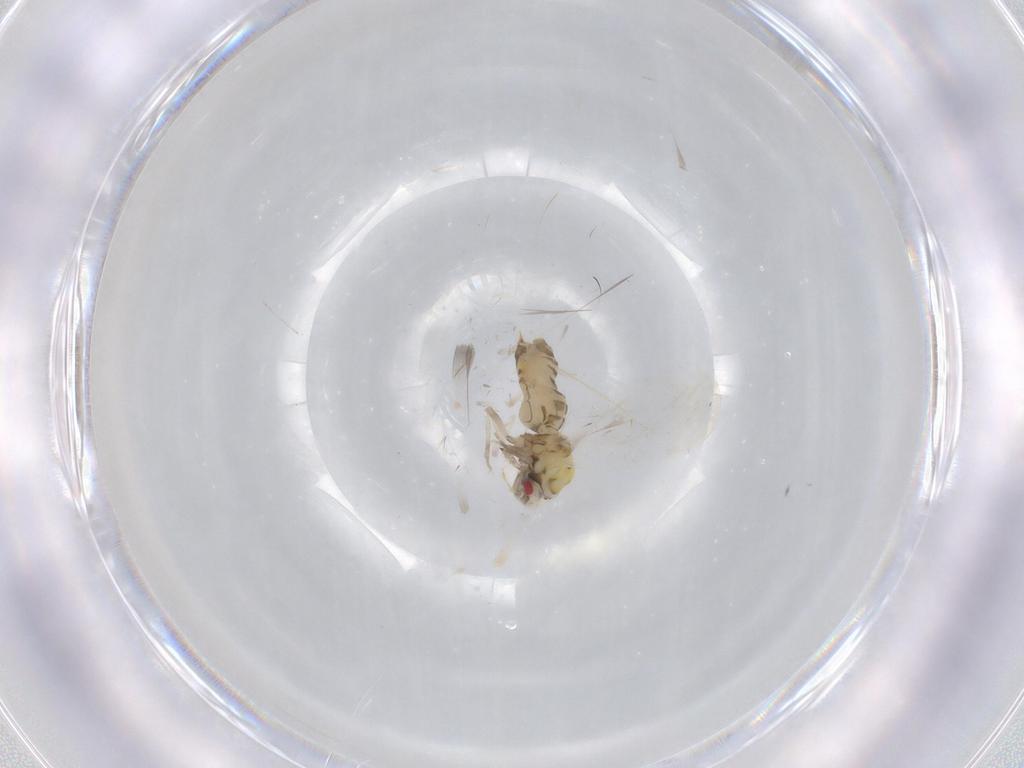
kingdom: Animalia
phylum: Arthropoda
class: Insecta
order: Hemiptera
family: Aleyrodidae
